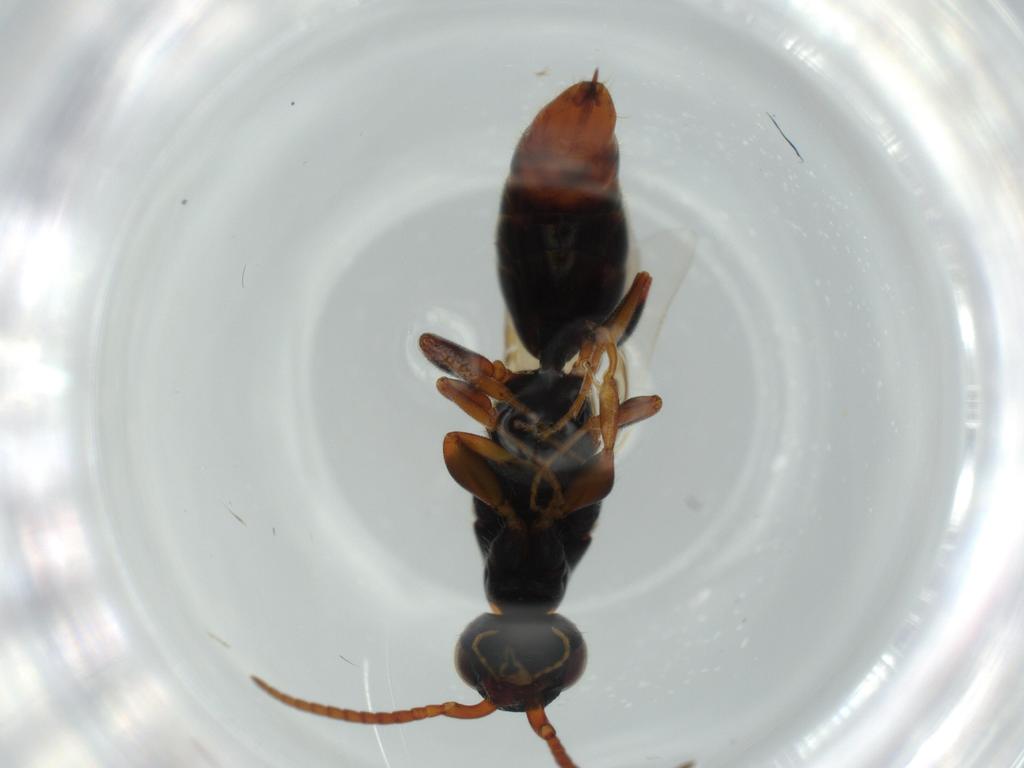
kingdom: Animalia
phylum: Arthropoda
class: Insecta
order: Hymenoptera
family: Bethylidae
